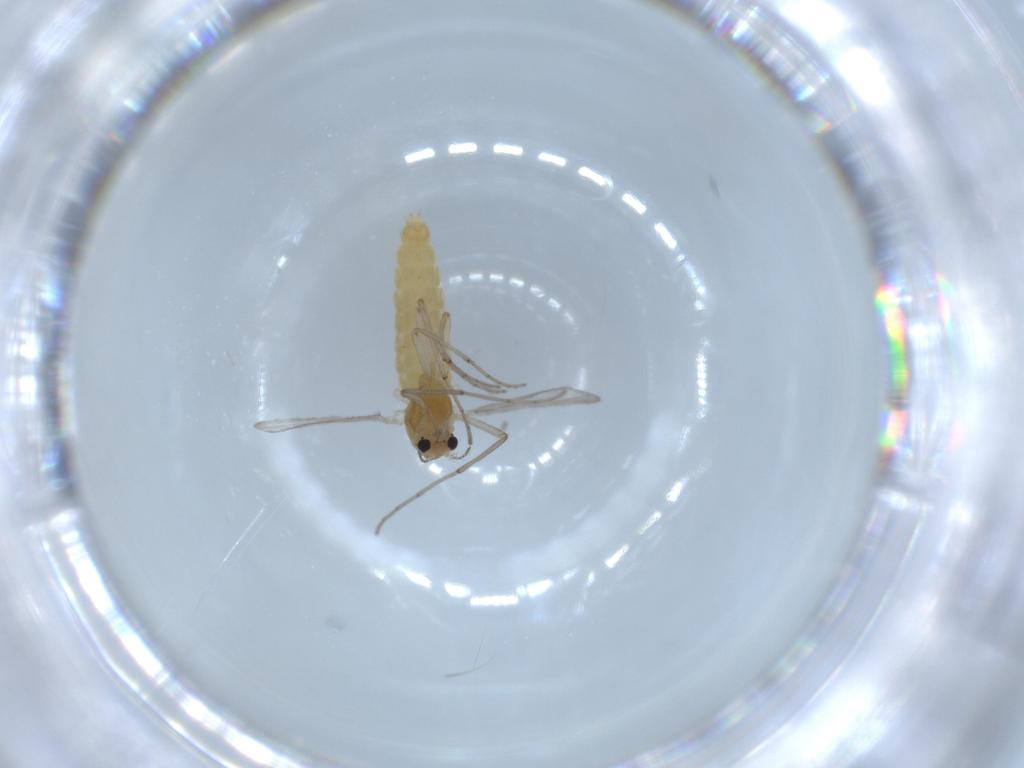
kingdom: Animalia
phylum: Arthropoda
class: Insecta
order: Diptera
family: Chironomidae
